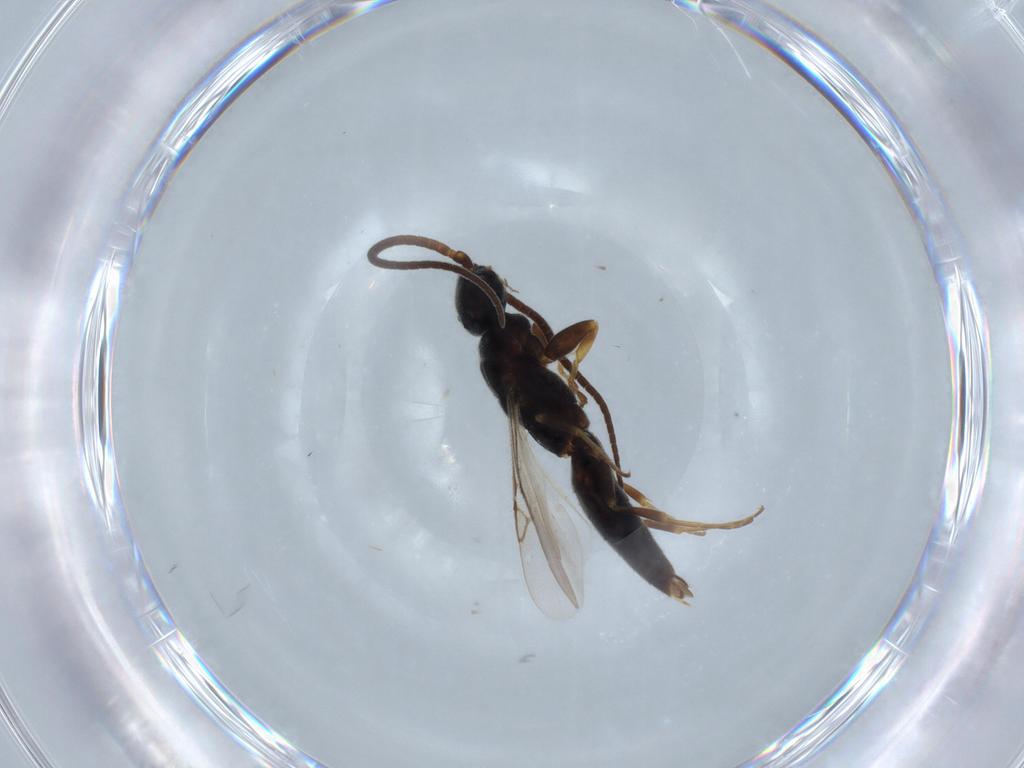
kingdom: Animalia
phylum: Arthropoda
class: Insecta
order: Hymenoptera
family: Sclerogibbidae
